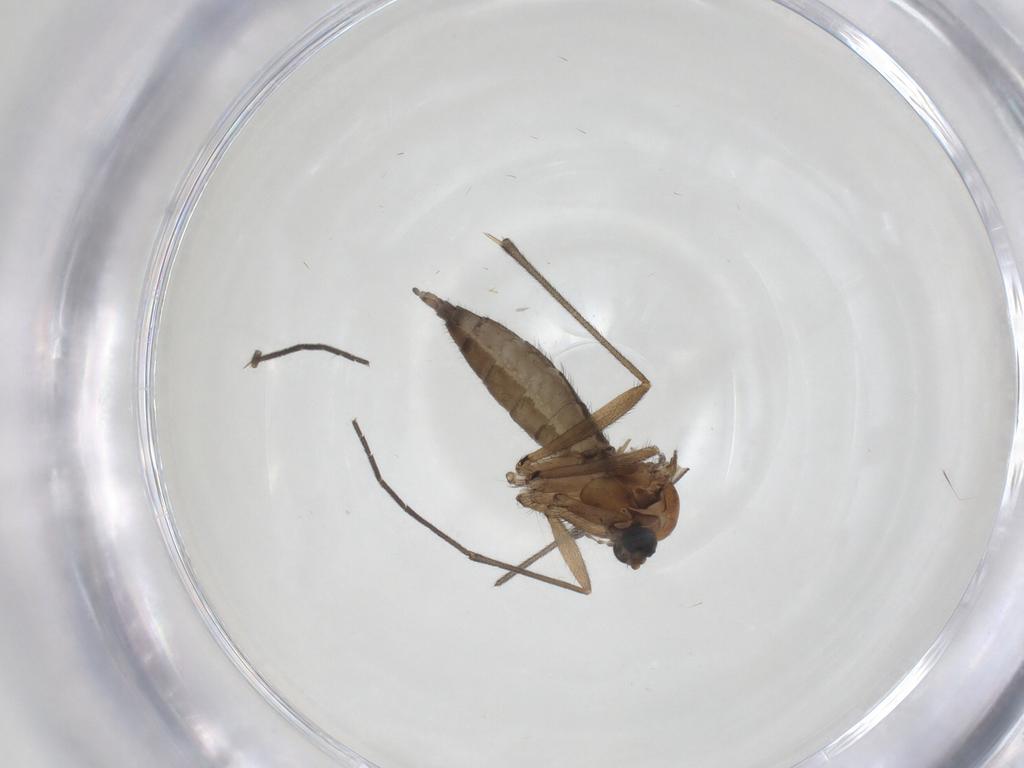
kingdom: Animalia
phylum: Arthropoda
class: Insecta
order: Diptera
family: Sciaridae
